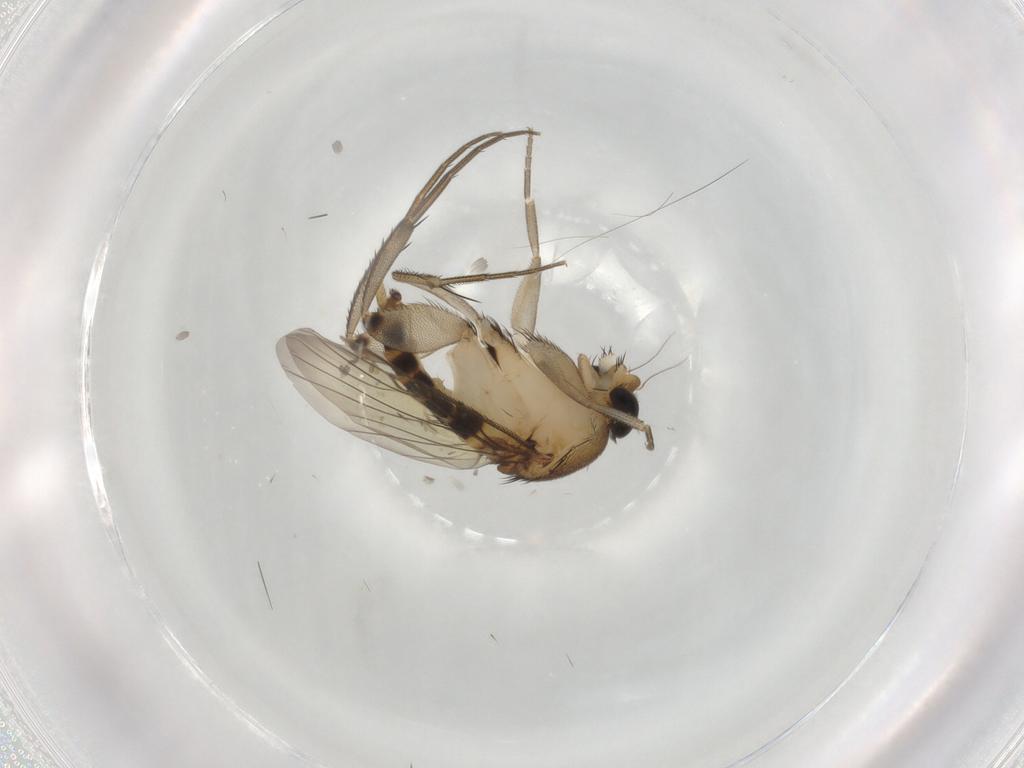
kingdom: Animalia
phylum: Arthropoda
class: Insecta
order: Diptera
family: Phoridae
